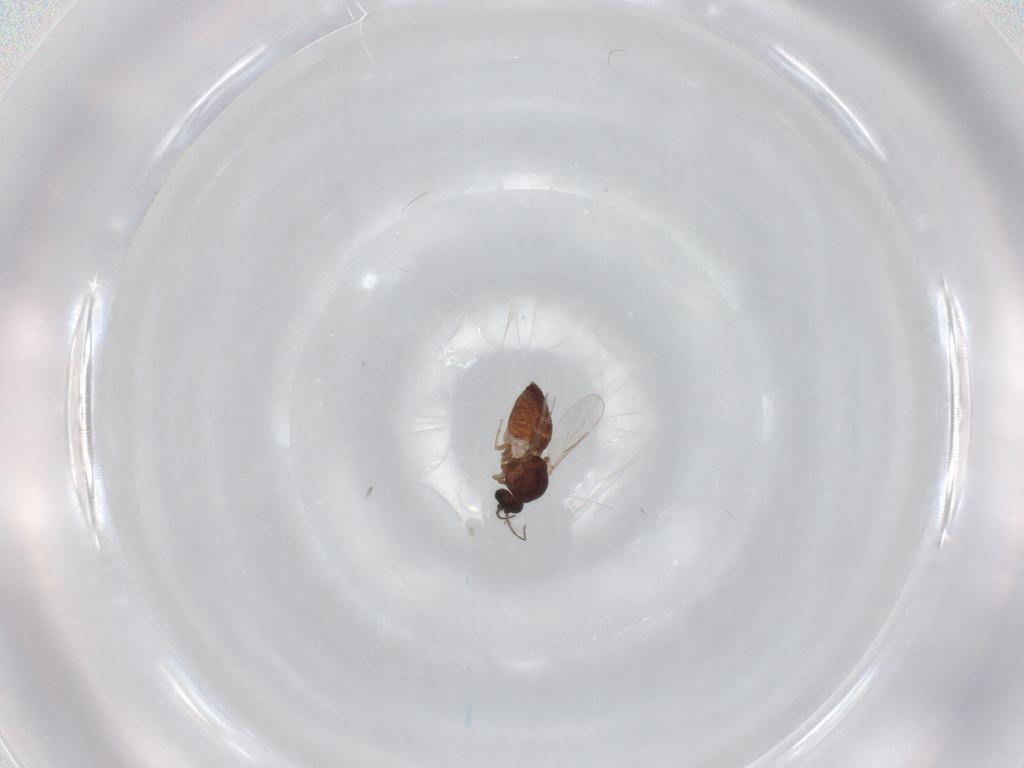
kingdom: Animalia
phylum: Arthropoda
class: Insecta
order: Diptera
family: Ceratopogonidae
